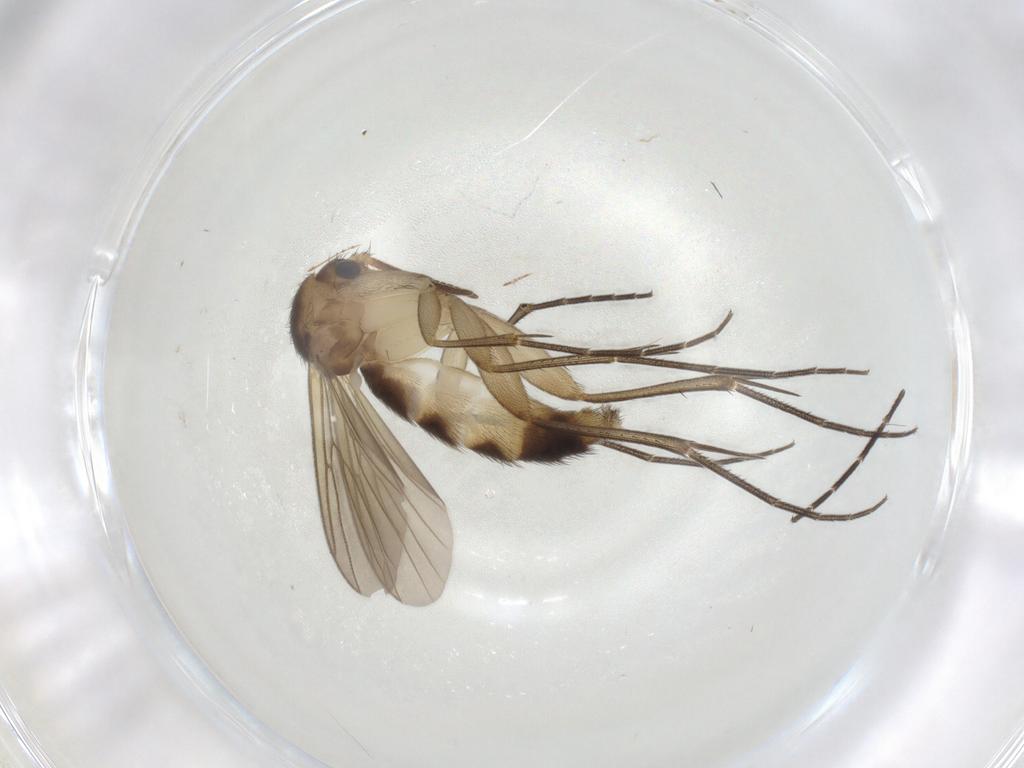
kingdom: Animalia
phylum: Arthropoda
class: Insecta
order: Diptera
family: Keroplatidae
